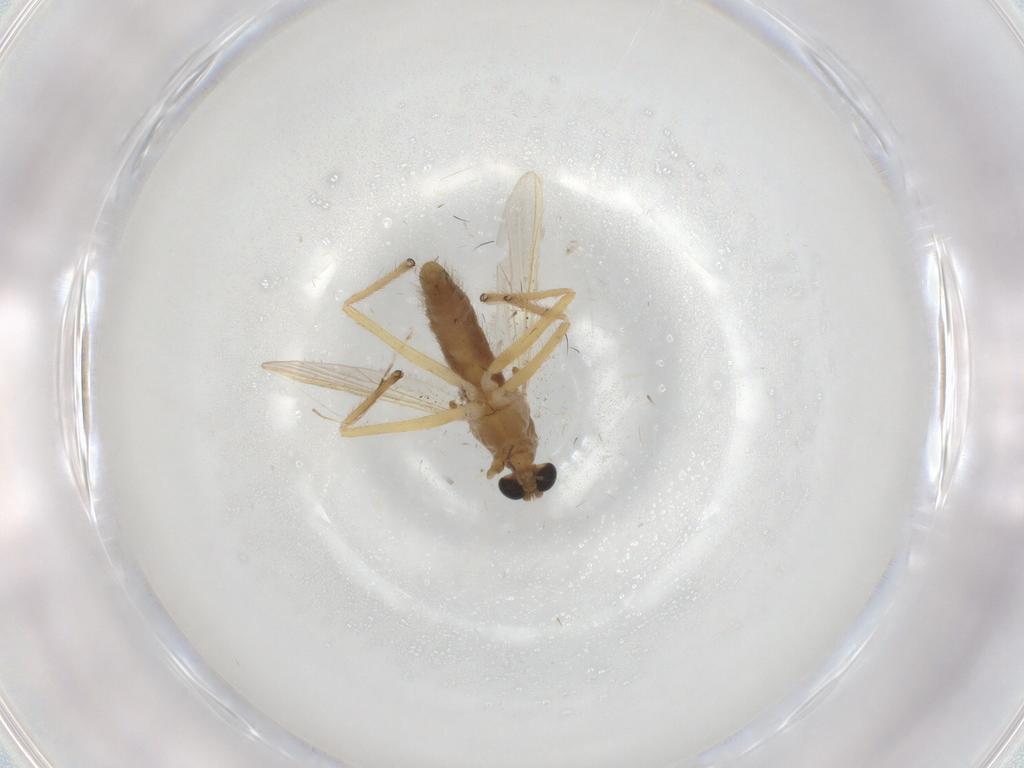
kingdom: Animalia
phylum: Arthropoda
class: Insecta
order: Diptera
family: Chironomidae
